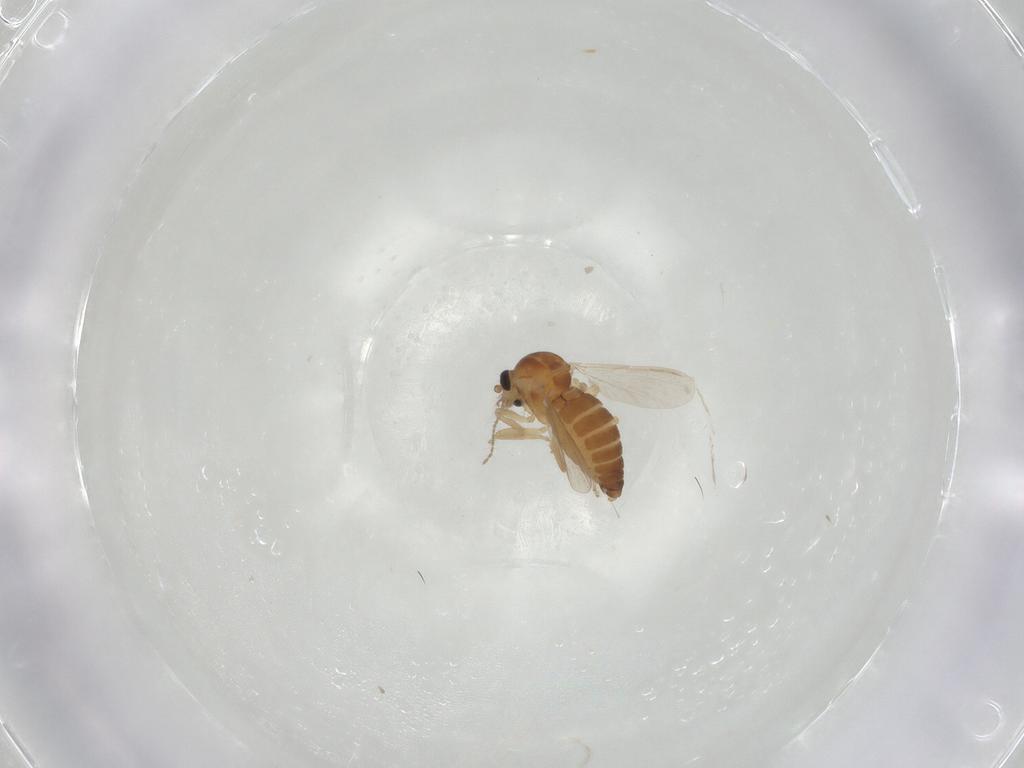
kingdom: Animalia
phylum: Arthropoda
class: Insecta
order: Diptera
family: Cecidomyiidae
